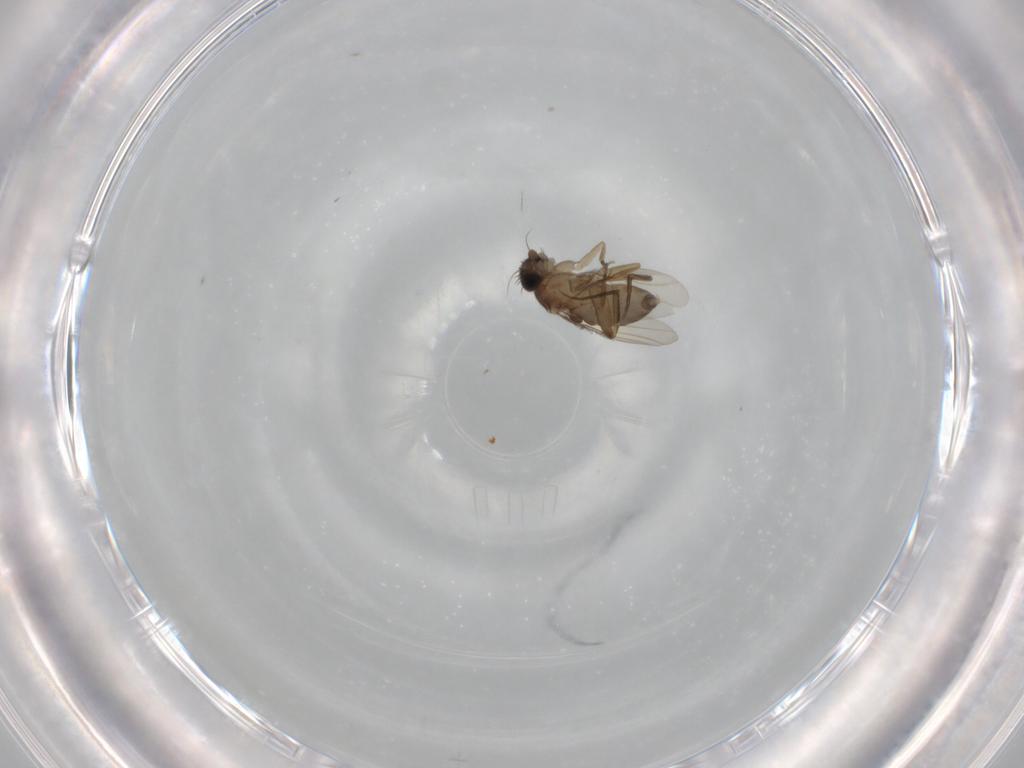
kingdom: Animalia
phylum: Arthropoda
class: Insecta
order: Diptera
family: Phoridae
